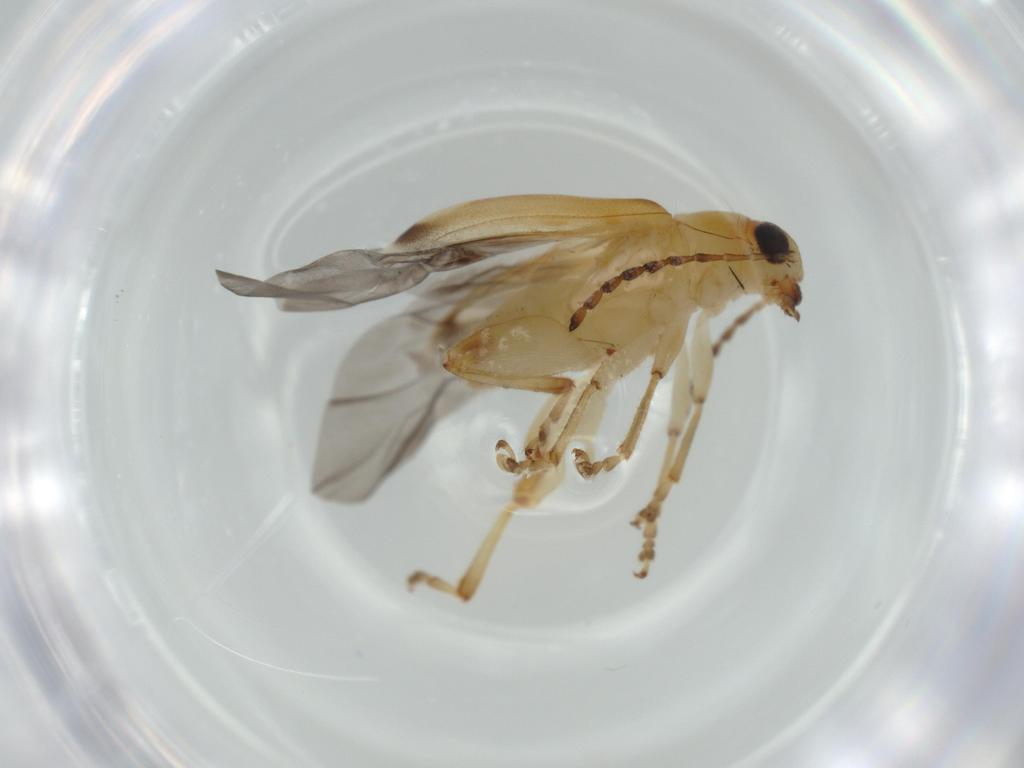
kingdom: Animalia
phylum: Arthropoda
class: Insecta
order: Coleoptera
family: Chrysomelidae
